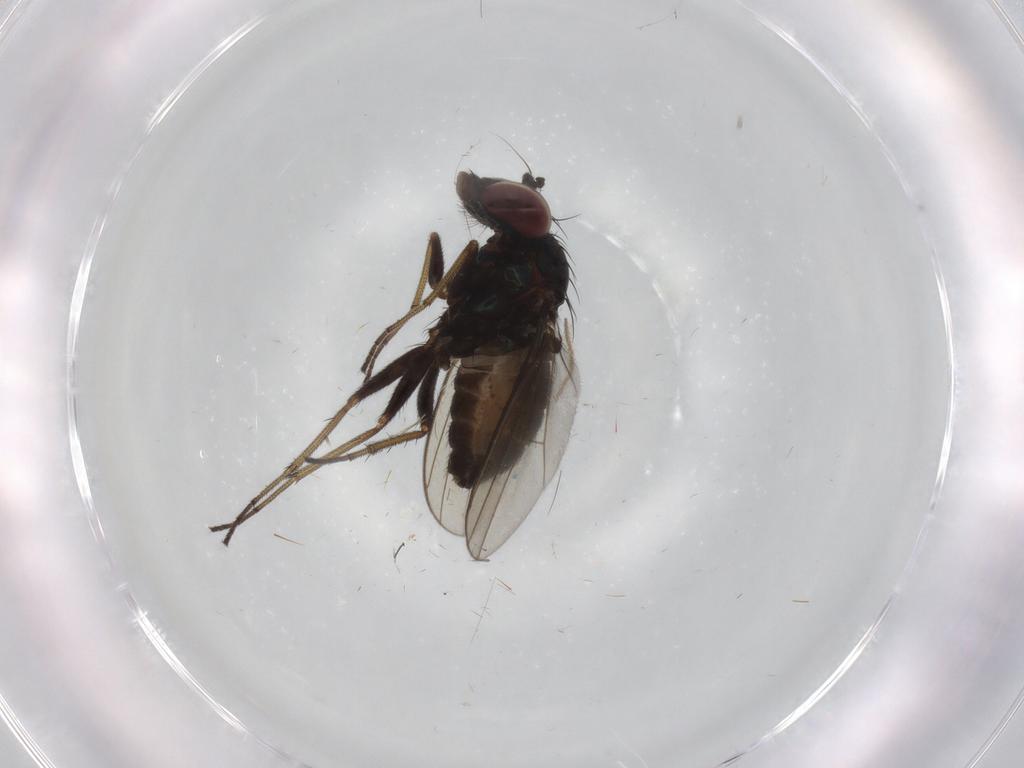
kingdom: Animalia
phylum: Arthropoda
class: Insecta
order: Diptera
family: Dolichopodidae
